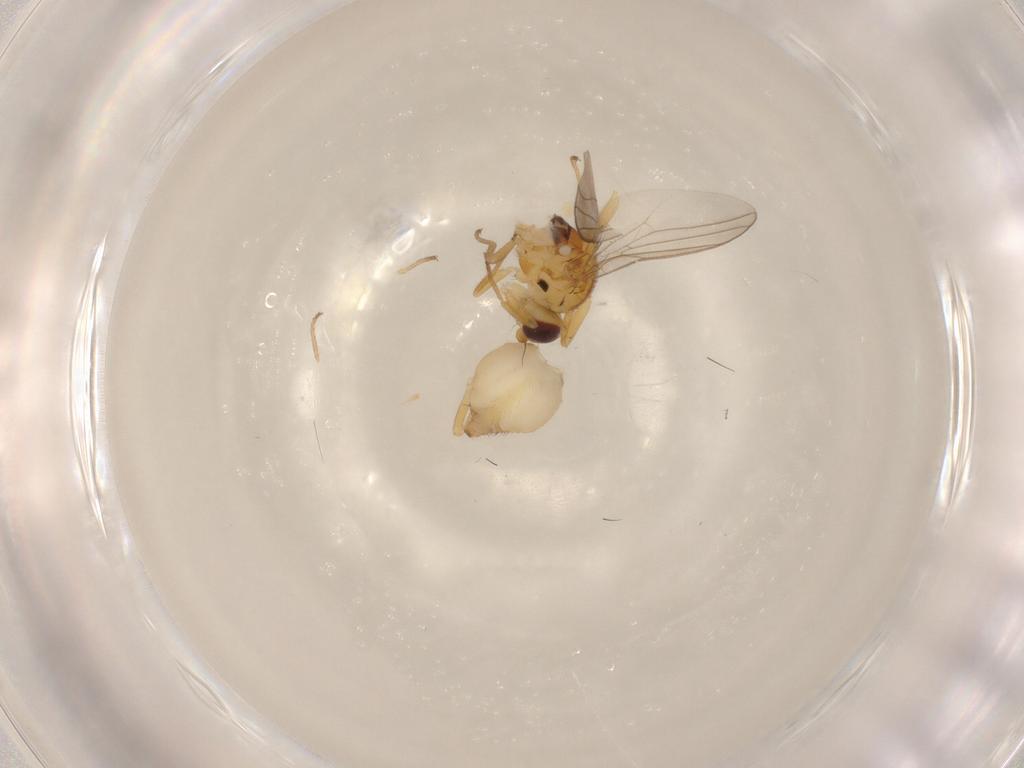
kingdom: Animalia
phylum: Arthropoda
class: Insecta
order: Diptera
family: Chloropidae
